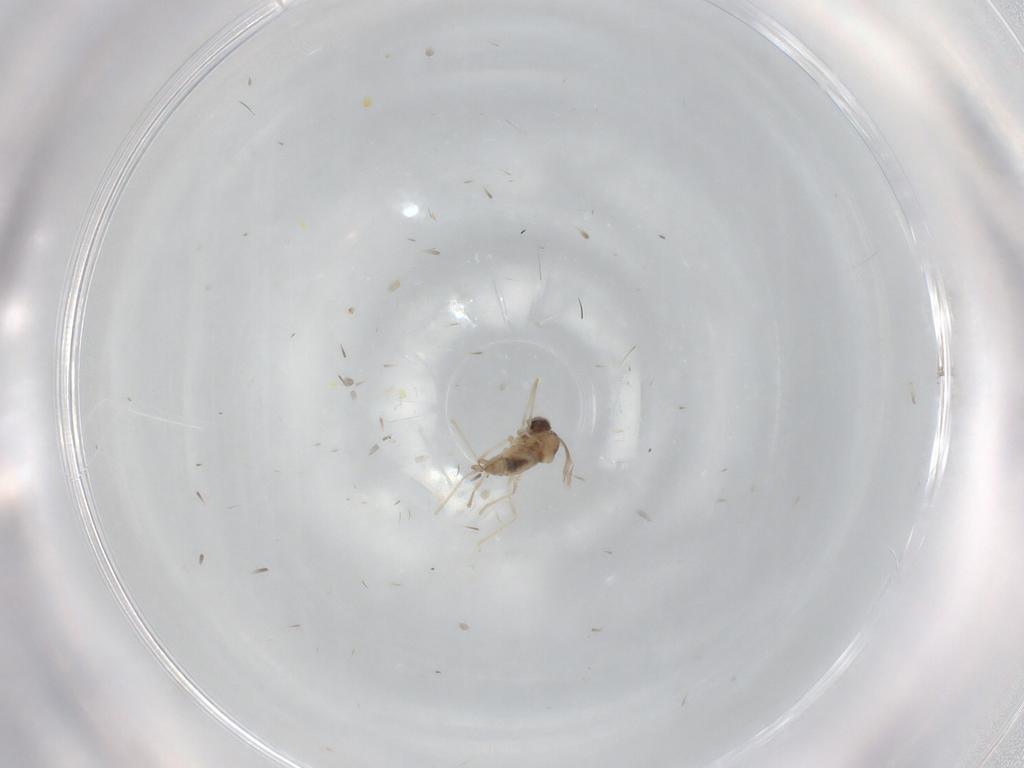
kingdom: Animalia
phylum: Arthropoda
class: Insecta
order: Diptera
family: Cecidomyiidae
